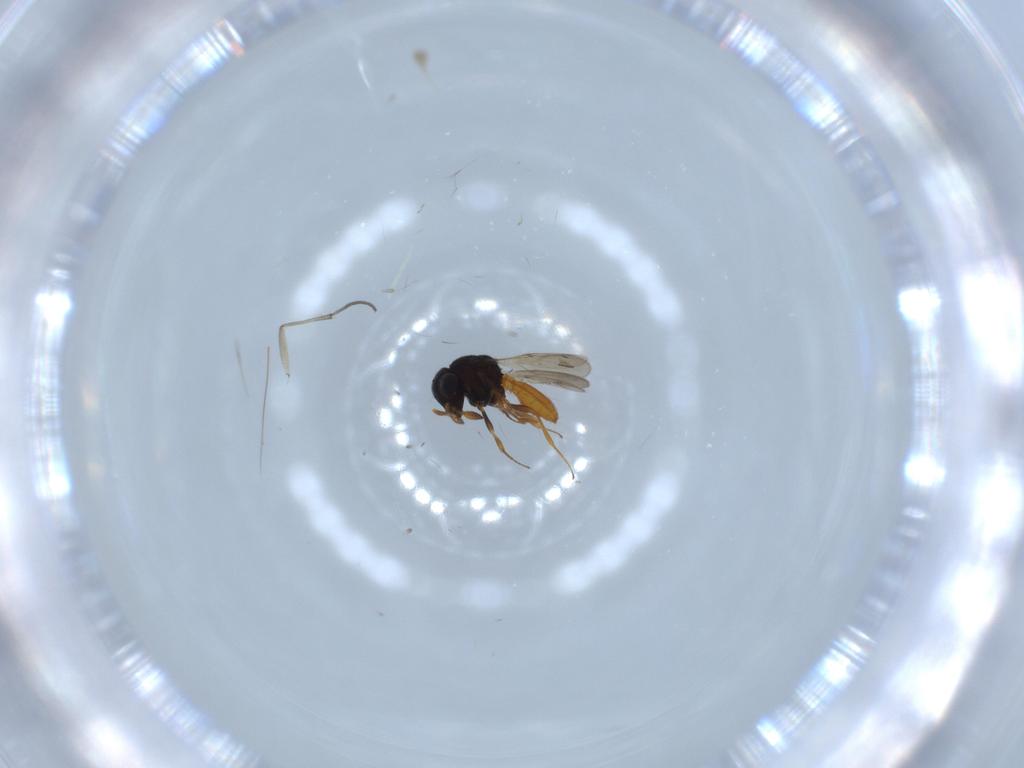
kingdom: Animalia
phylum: Arthropoda
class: Insecta
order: Hymenoptera
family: Scelionidae
